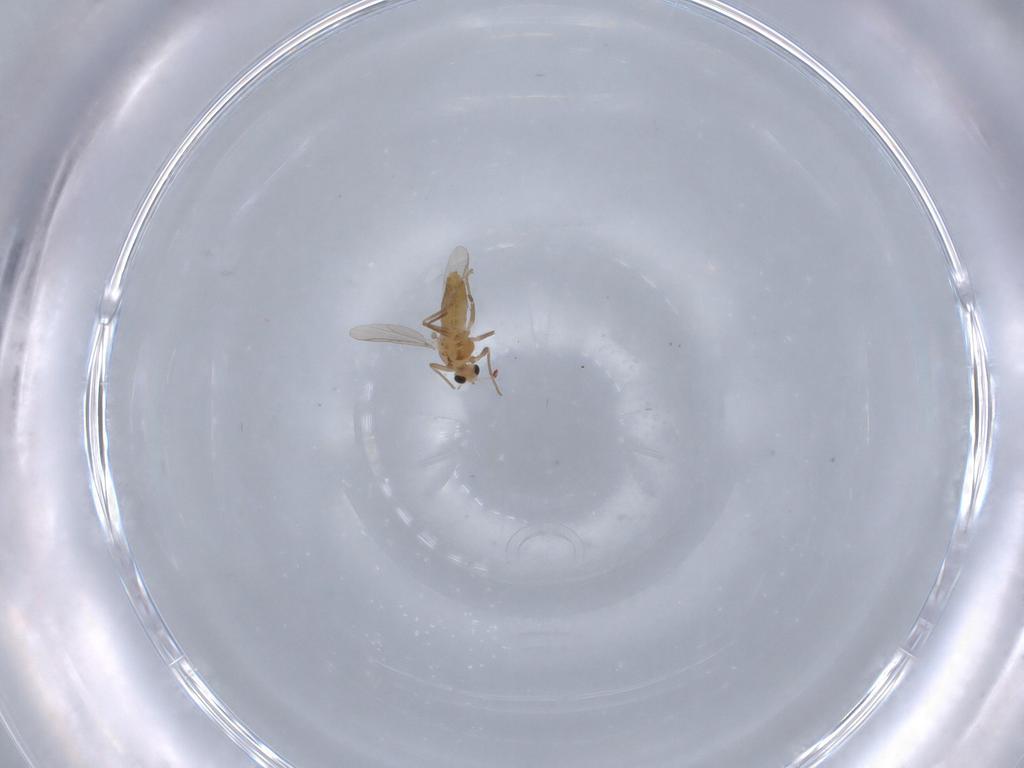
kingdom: Animalia
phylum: Arthropoda
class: Insecta
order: Diptera
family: Chironomidae
